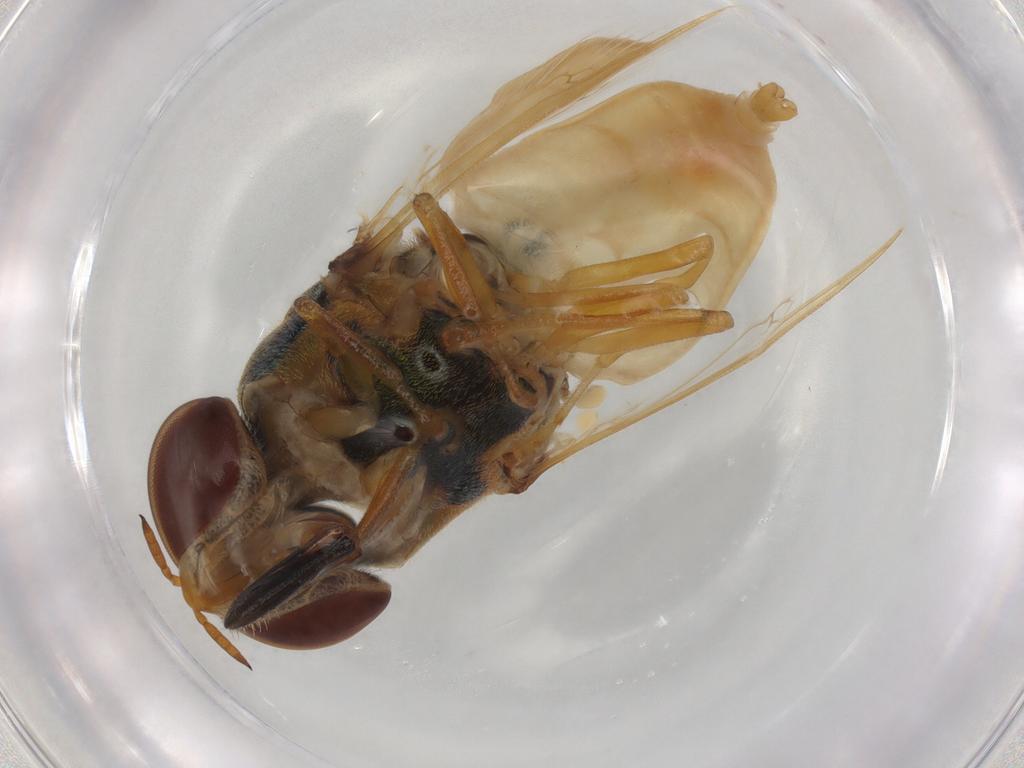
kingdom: Animalia
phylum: Arthropoda
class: Insecta
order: Diptera
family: Muscidae
